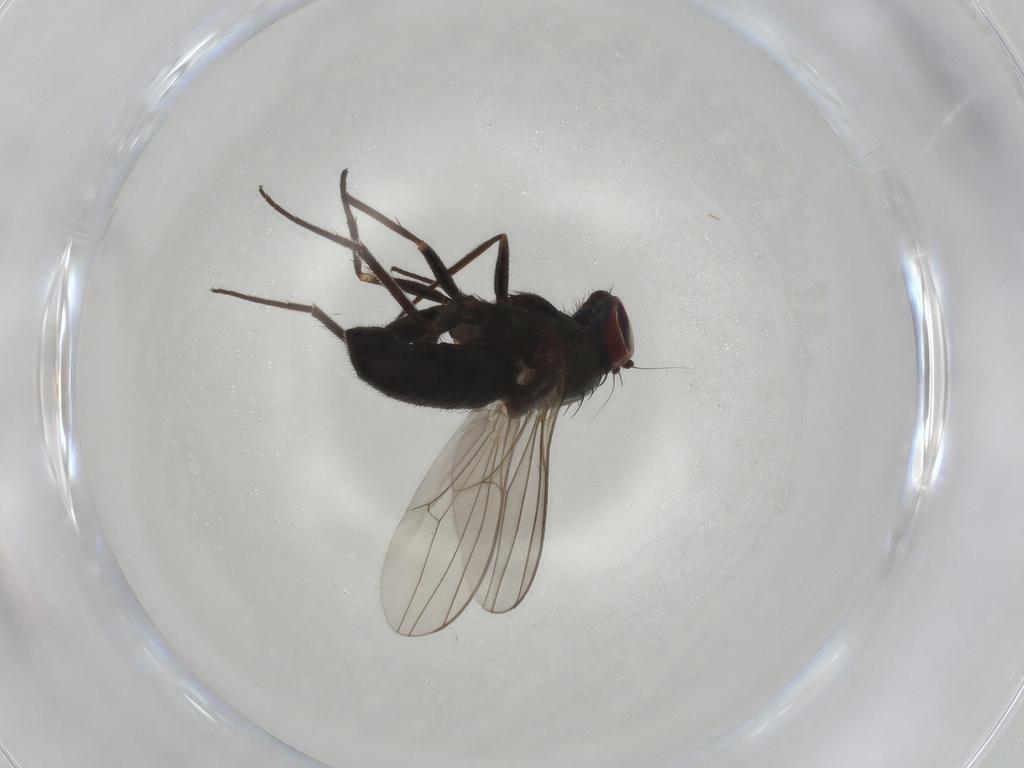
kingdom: Animalia
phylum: Arthropoda
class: Insecta
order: Diptera
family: Dolichopodidae
